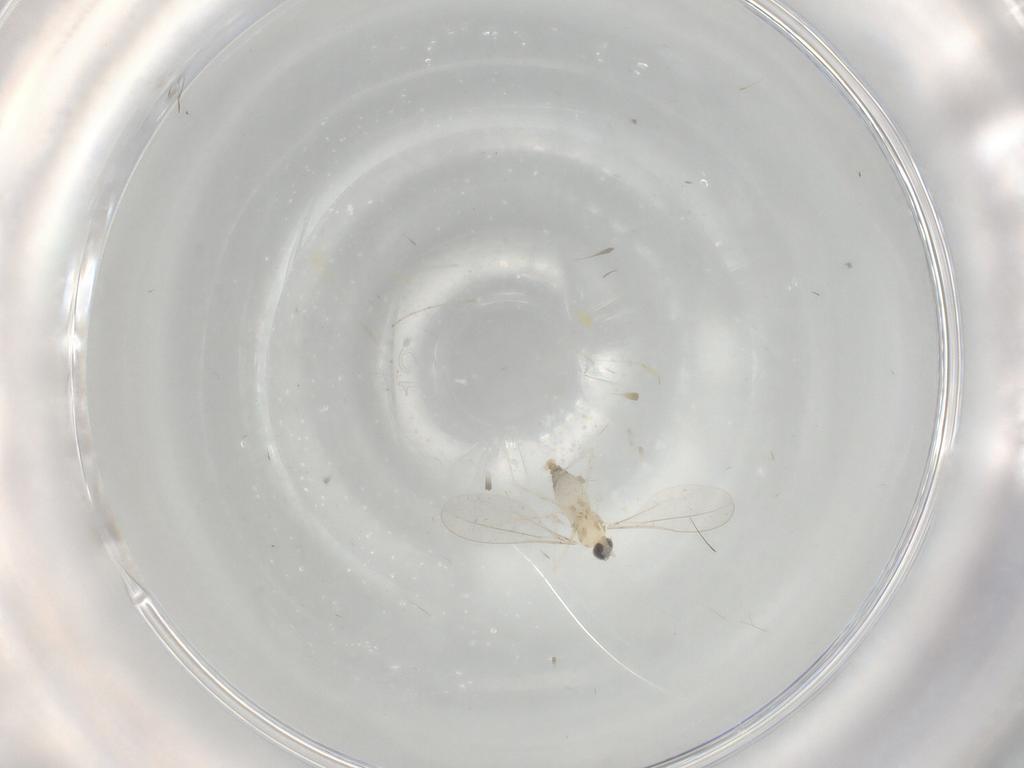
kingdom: Animalia
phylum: Arthropoda
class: Insecta
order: Diptera
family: Cecidomyiidae
